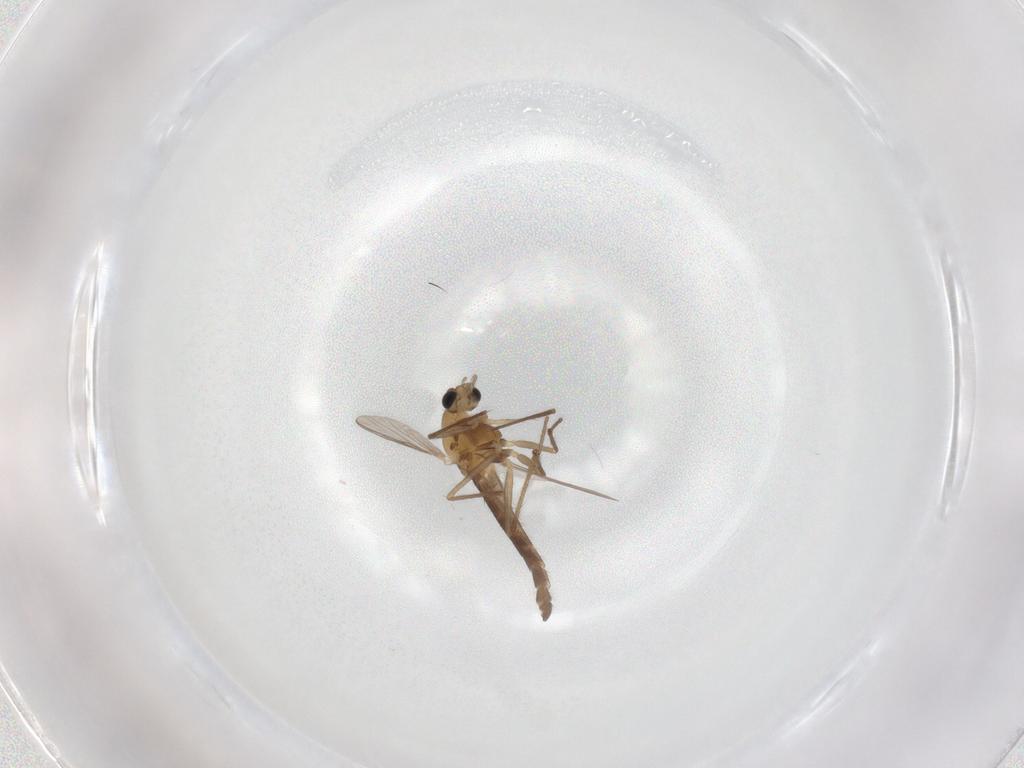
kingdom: Animalia
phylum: Arthropoda
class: Insecta
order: Diptera
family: Chironomidae
